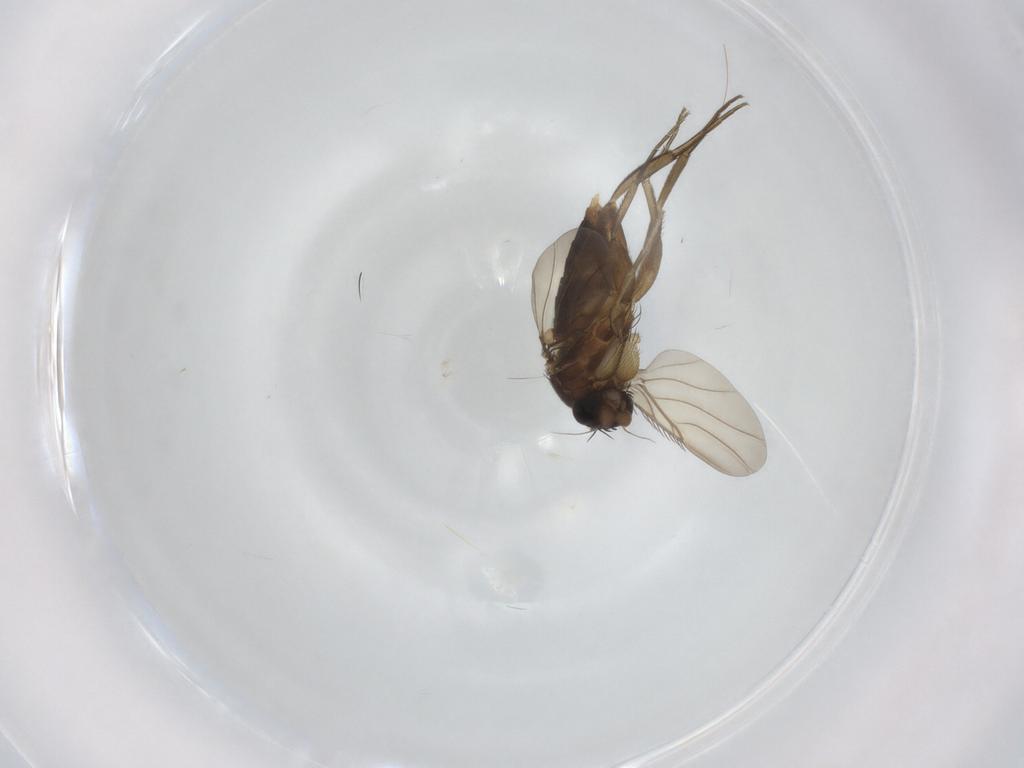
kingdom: Animalia
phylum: Arthropoda
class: Insecta
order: Diptera
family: Phoridae
